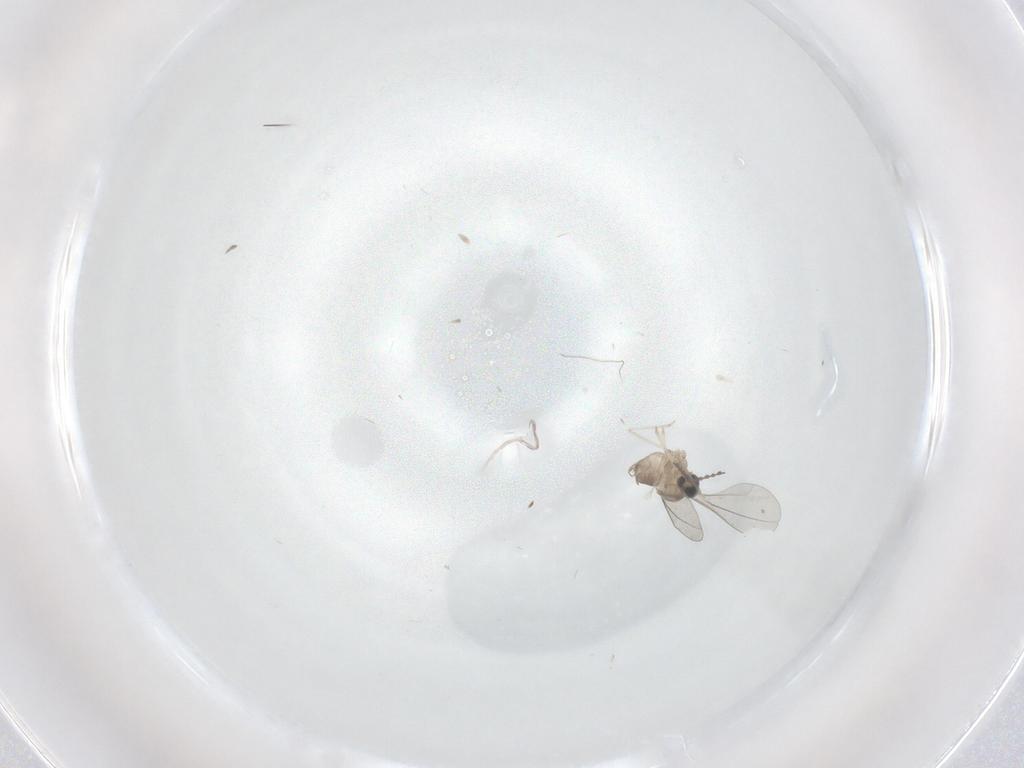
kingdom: Animalia
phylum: Arthropoda
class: Insecta
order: Diptera
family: Cecidomyiidae
